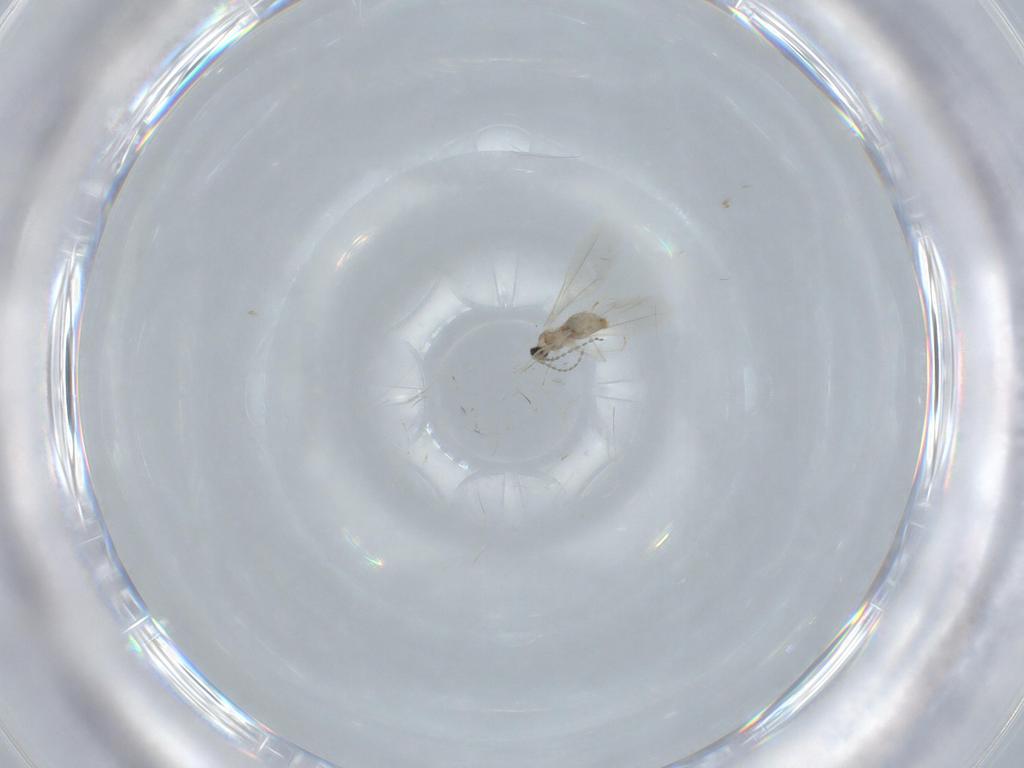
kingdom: Animalia
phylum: Arthropoda
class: Insecta
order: Diptera
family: Cecidomyiidae
